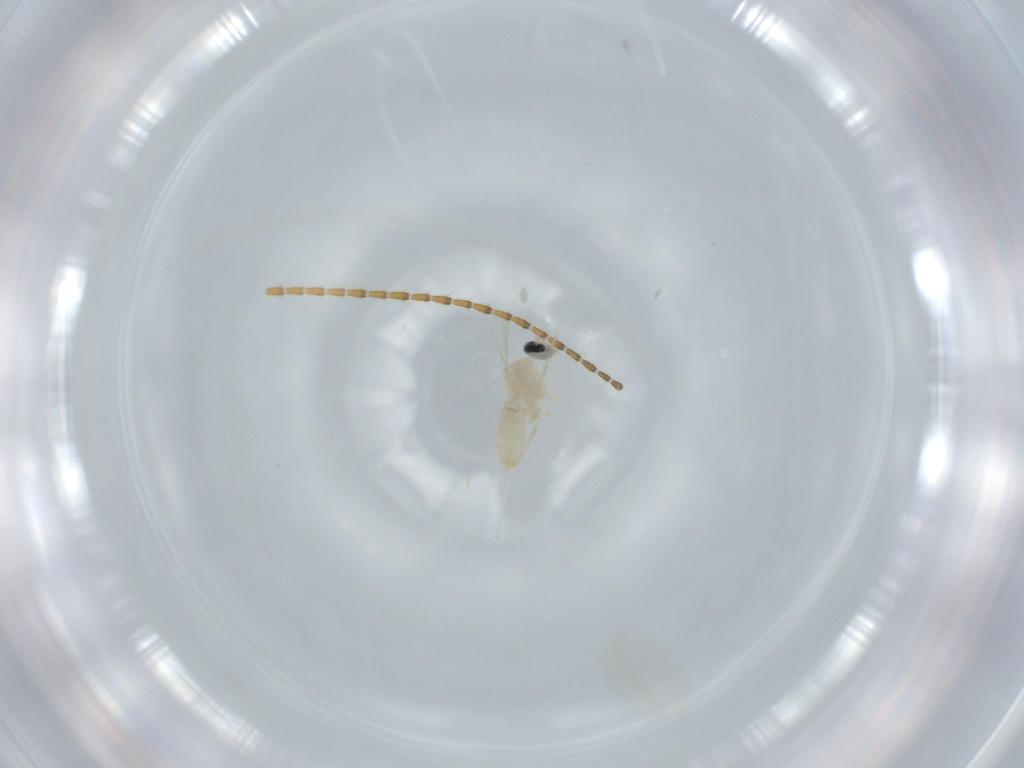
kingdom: Animalia
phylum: Arthropoda
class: Insecta
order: Diptera
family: Cecidomyiidae
